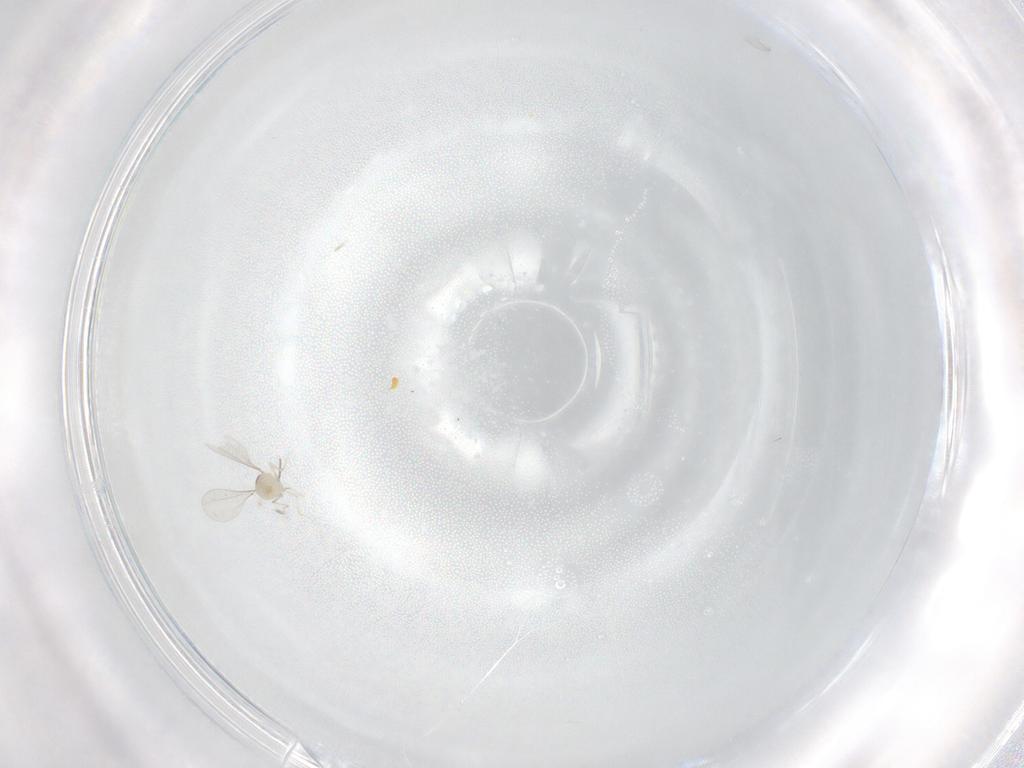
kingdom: Animalia
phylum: Arthropoda
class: Insecta
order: Diptera
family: Cecidomyiidae
